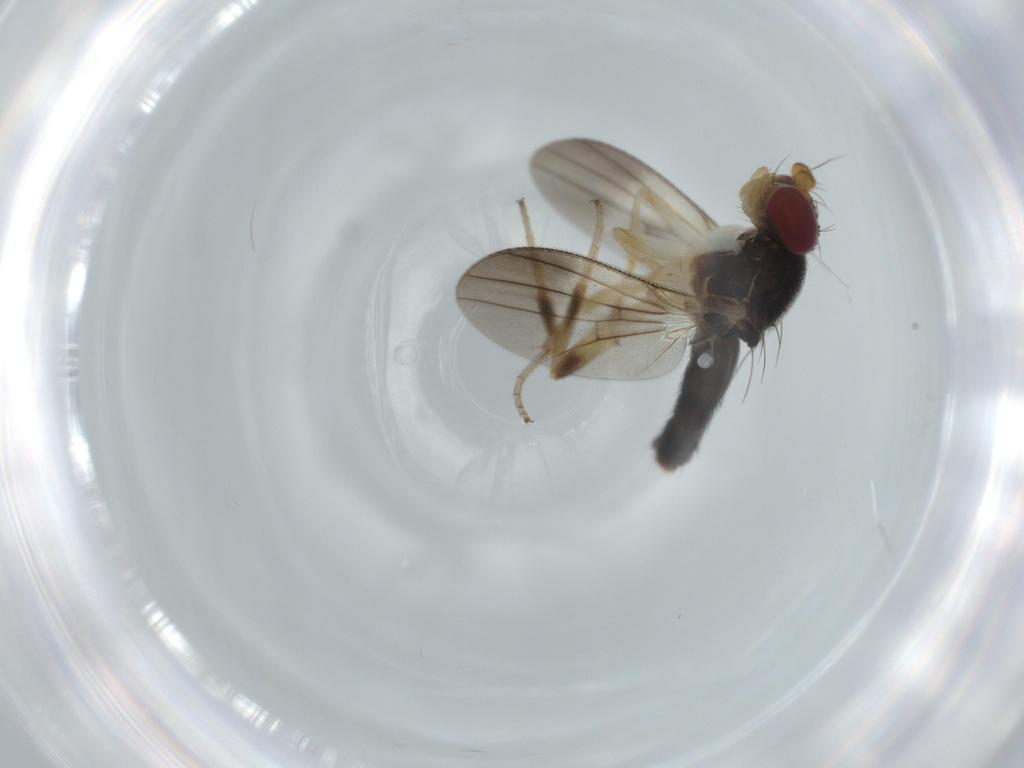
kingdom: Animalia
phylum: Arthropoda
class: Insecta
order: Diptera
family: Clusiidae
